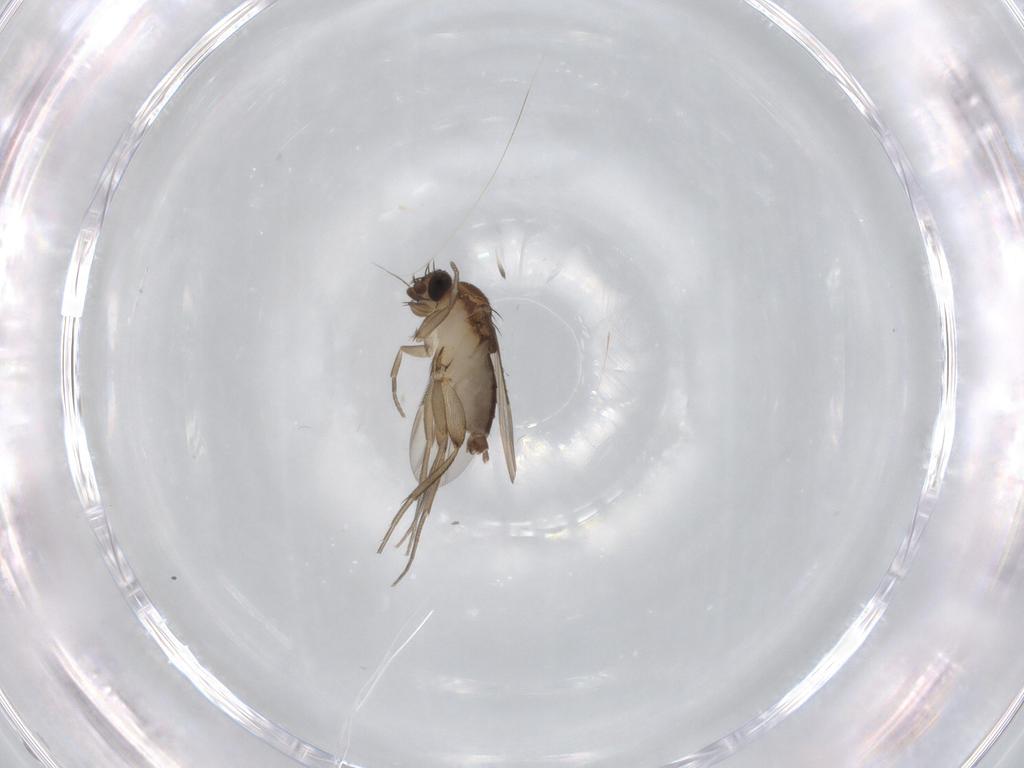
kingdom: Animalia
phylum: Arthropoda
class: Insecta
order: Diptera
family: Phoridae
